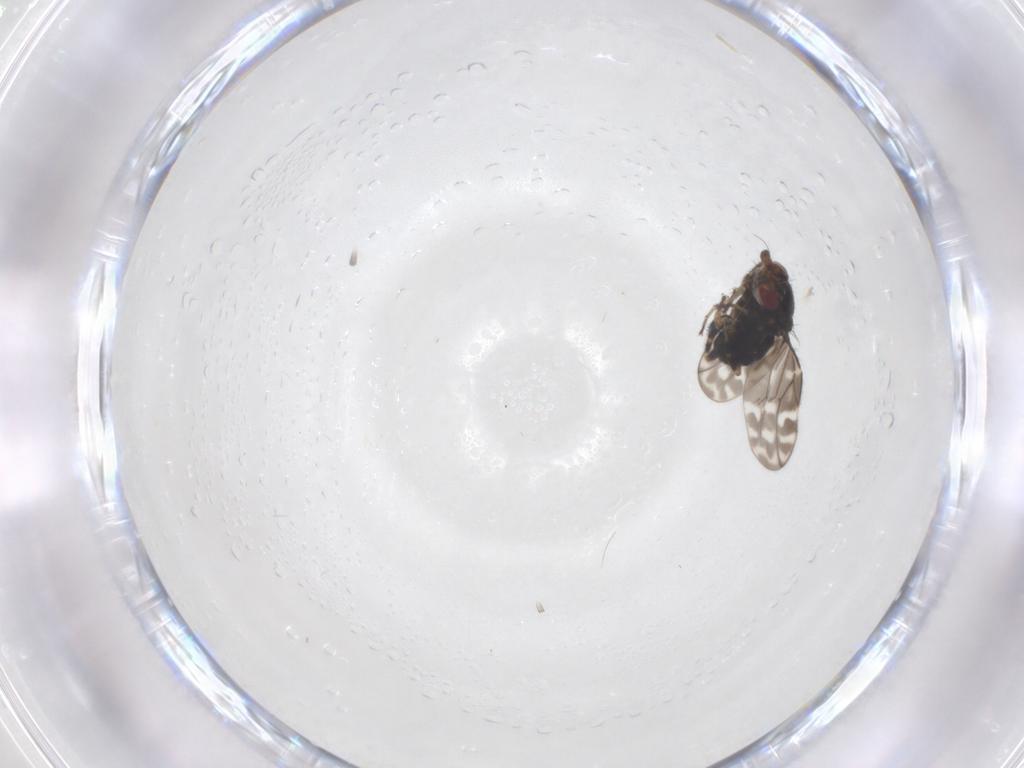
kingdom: Animalia
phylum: Arthropoda
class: Insecta
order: Diptera
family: Sphaeroceridae
